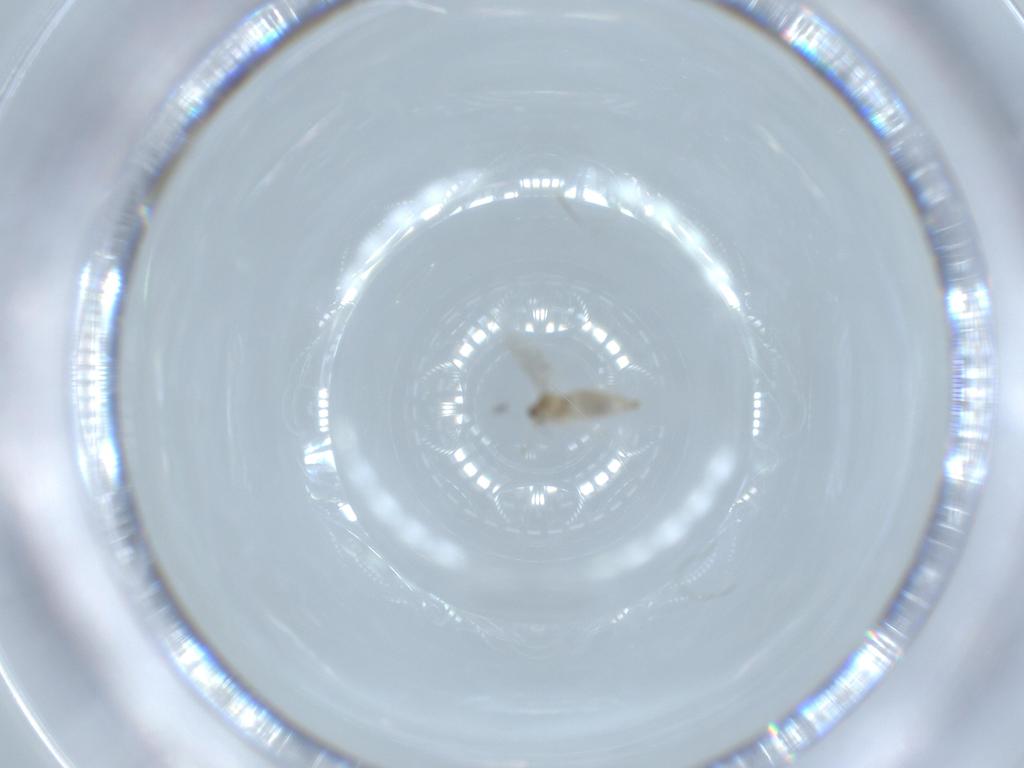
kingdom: Animalia
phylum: Arthropoda
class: Insecta
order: Diptera
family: Cecidomyiidae
